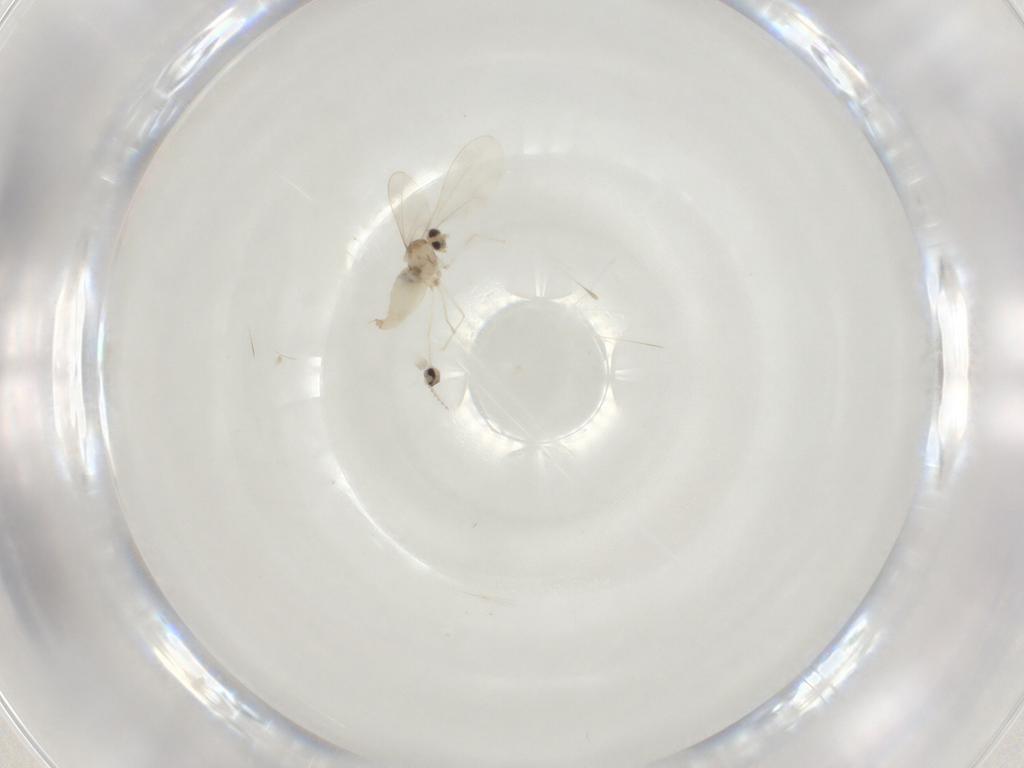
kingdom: Animalia
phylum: Arthropoda
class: Insecta
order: Diptera
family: Cecidomyiidae
